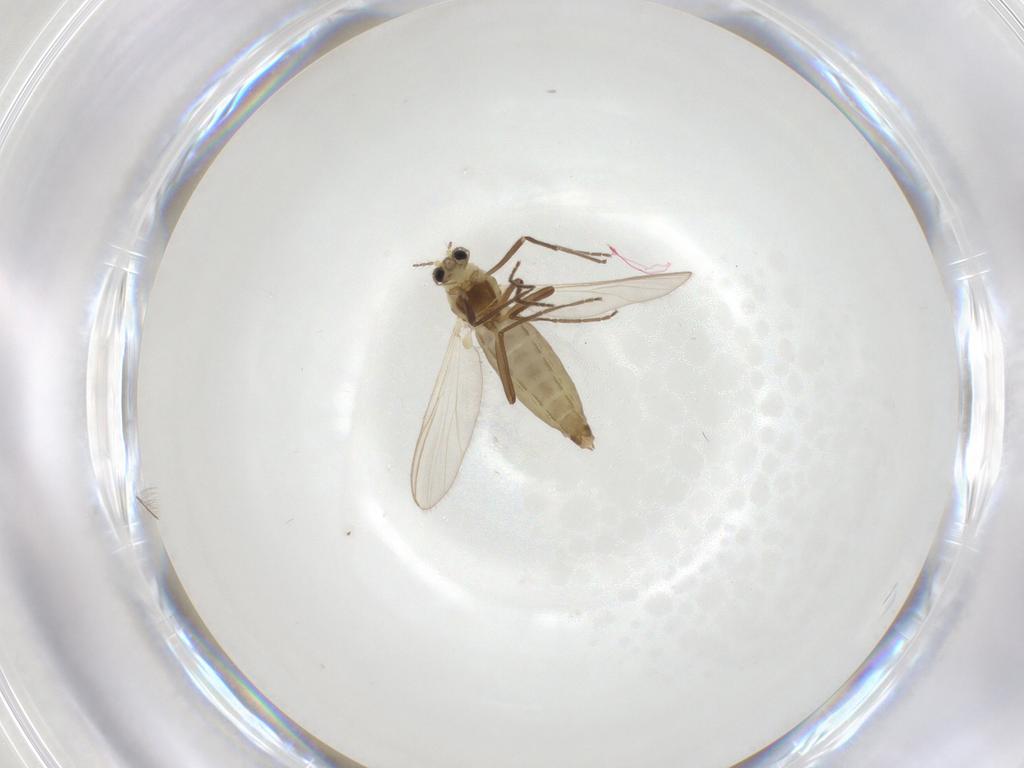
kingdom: Animalia
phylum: Arthropoda
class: Insecta
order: Diptera
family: Chironomidae
